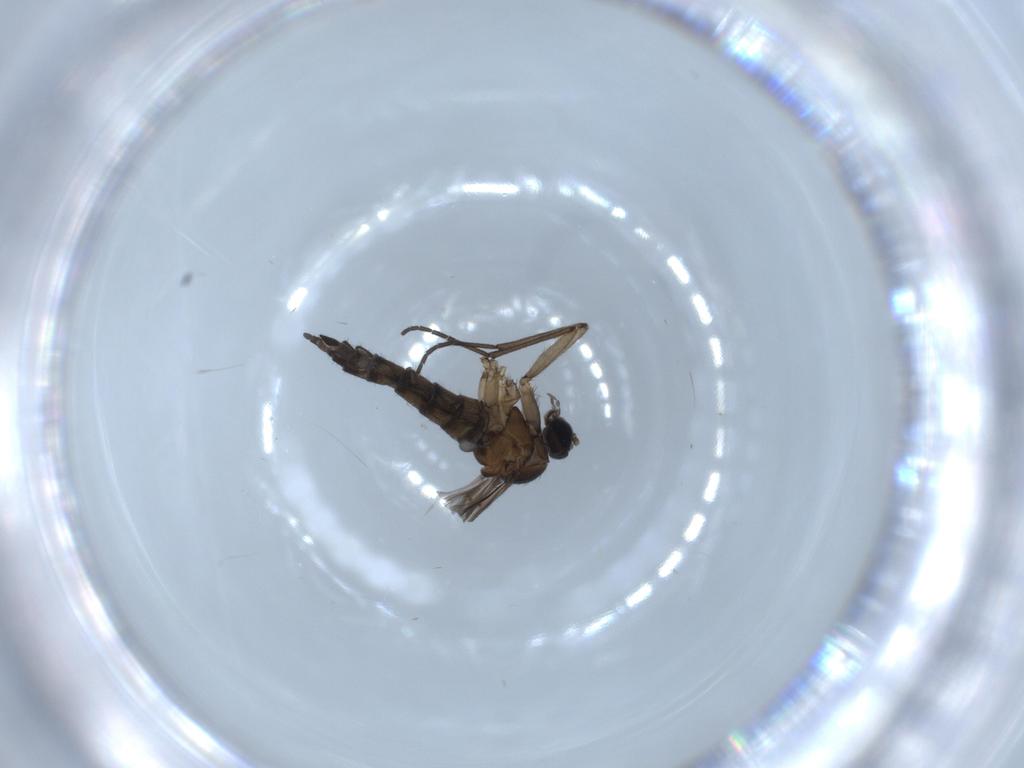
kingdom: Animalia
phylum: Arthropoda
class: Insecta
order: Diptera
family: Sciaridae
